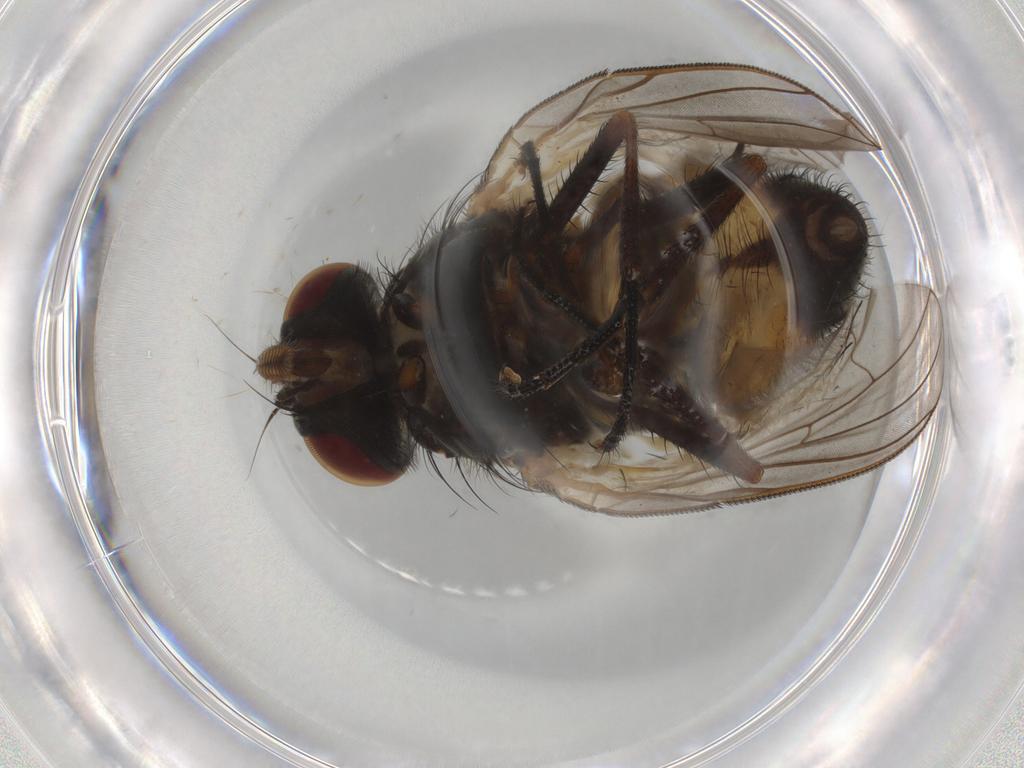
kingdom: Animalia
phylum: Arthropoda
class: Insecta
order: Diptera
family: Fannia
